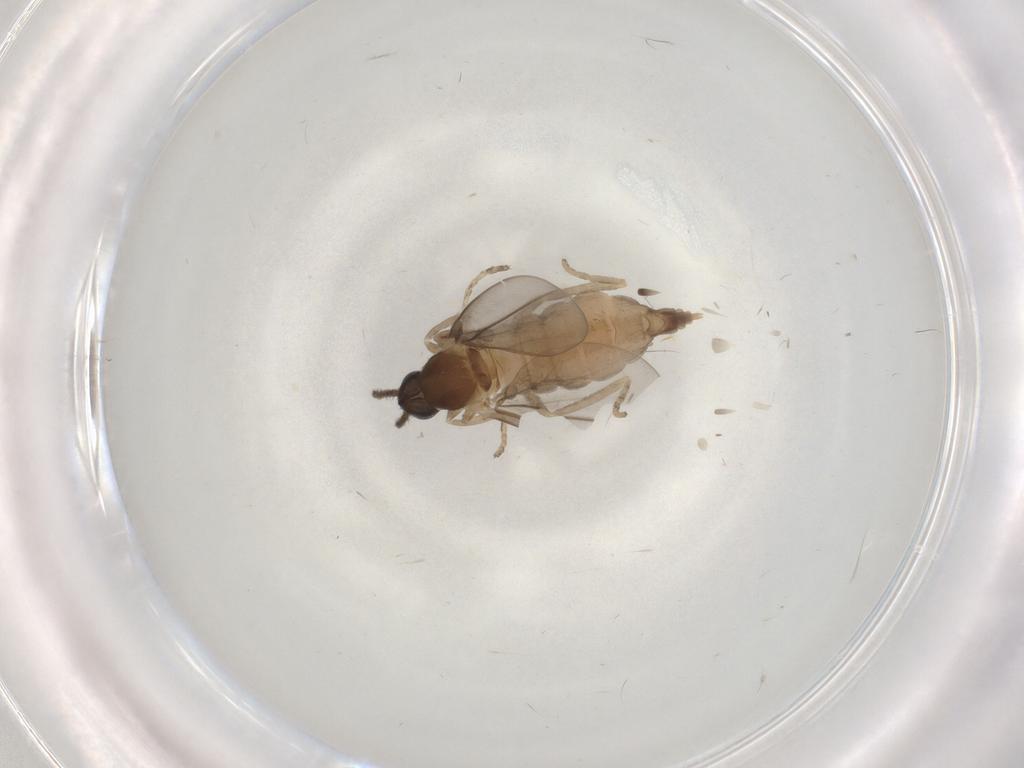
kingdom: Animalia
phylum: Arthropoda
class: Insecta
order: Diptera
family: Cecidomyiidae
